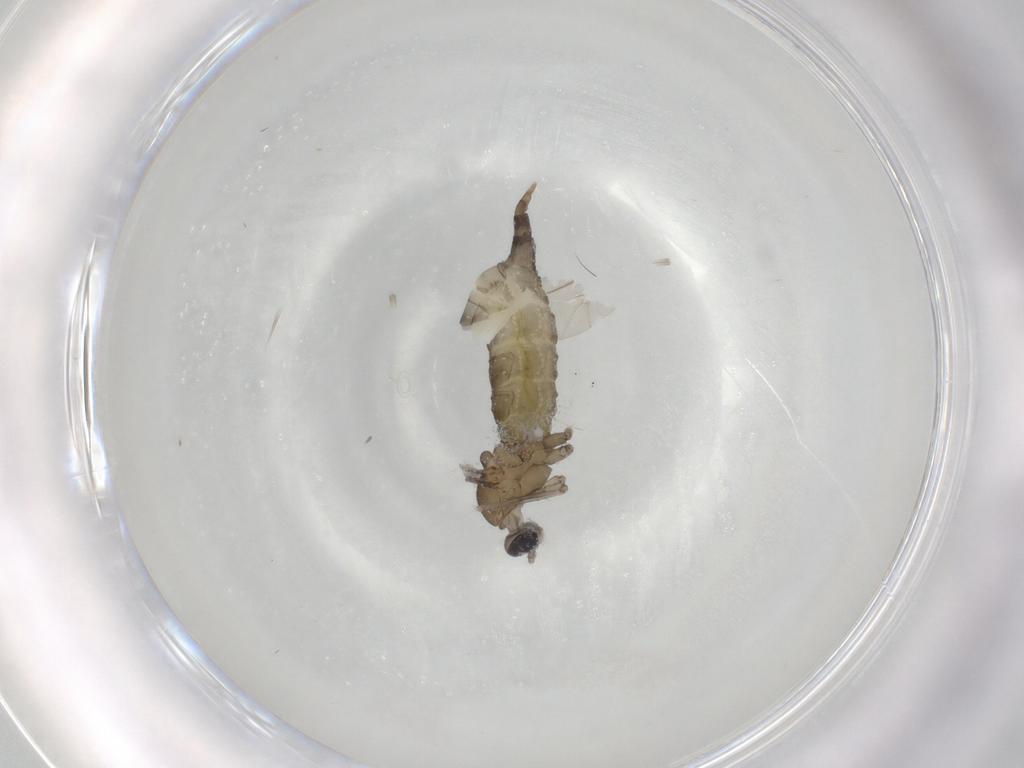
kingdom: Animalia
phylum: Arthropoda
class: Insecta
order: Diptera
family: Cecidomyiidae
